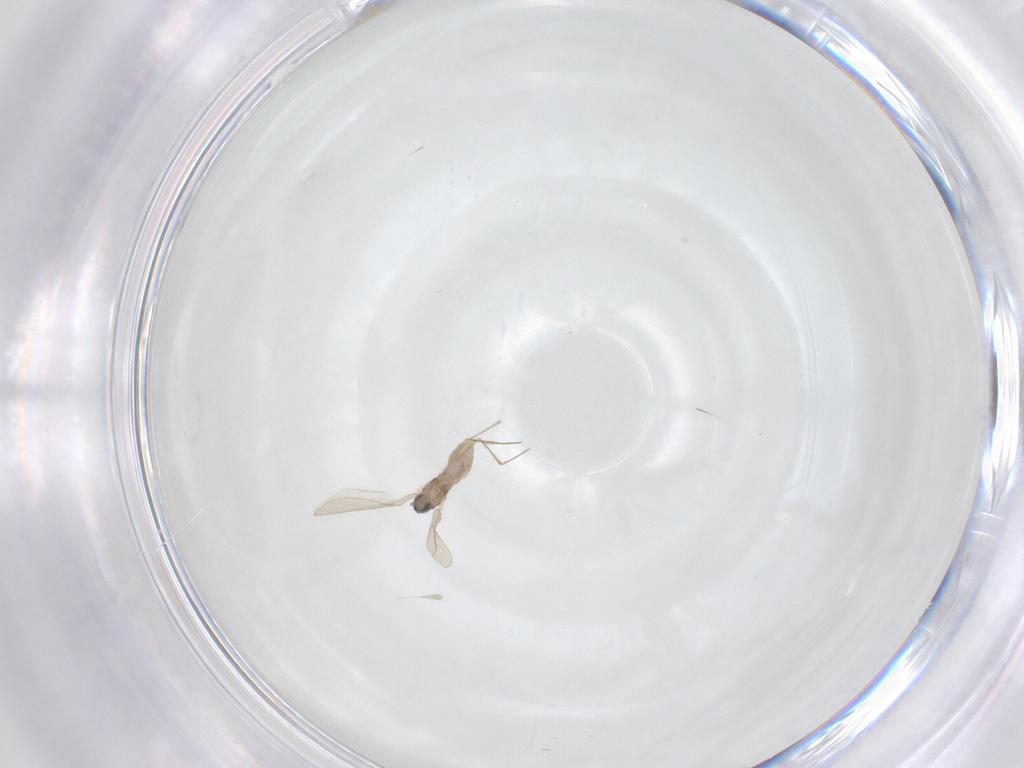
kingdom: Animalia
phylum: Arthropoda
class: Insecta
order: Diptera
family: Ceratopogonidae
